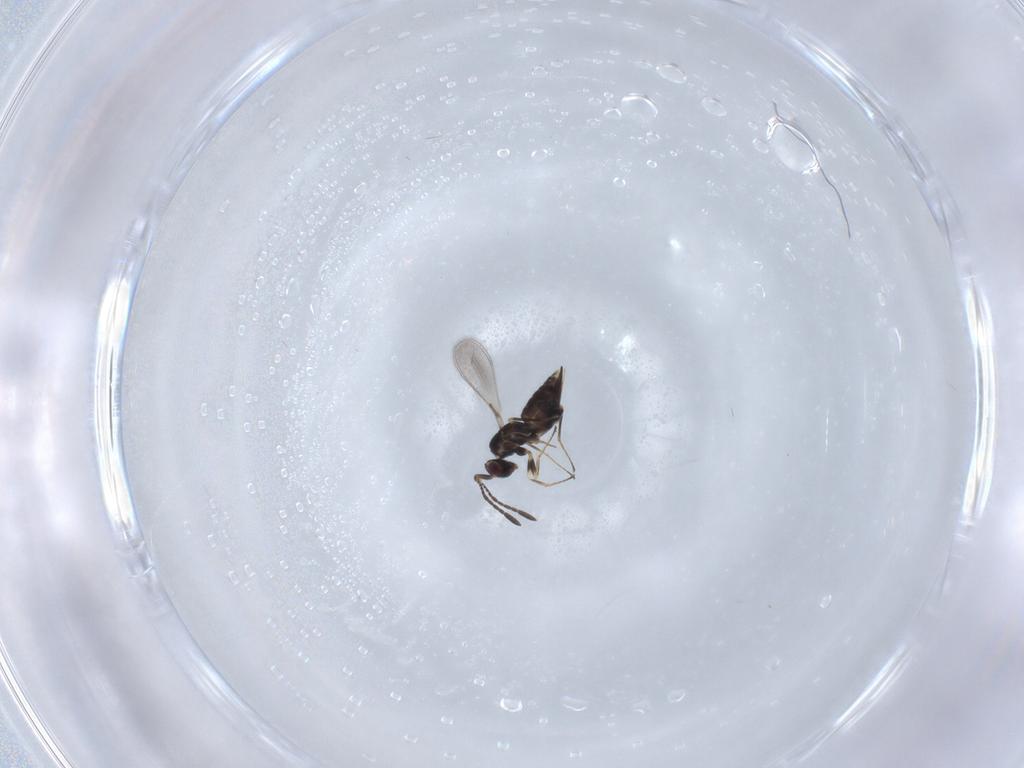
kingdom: Animalia
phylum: Arthropoda
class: Insecta
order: Hymenoptera
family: Mymaridae
